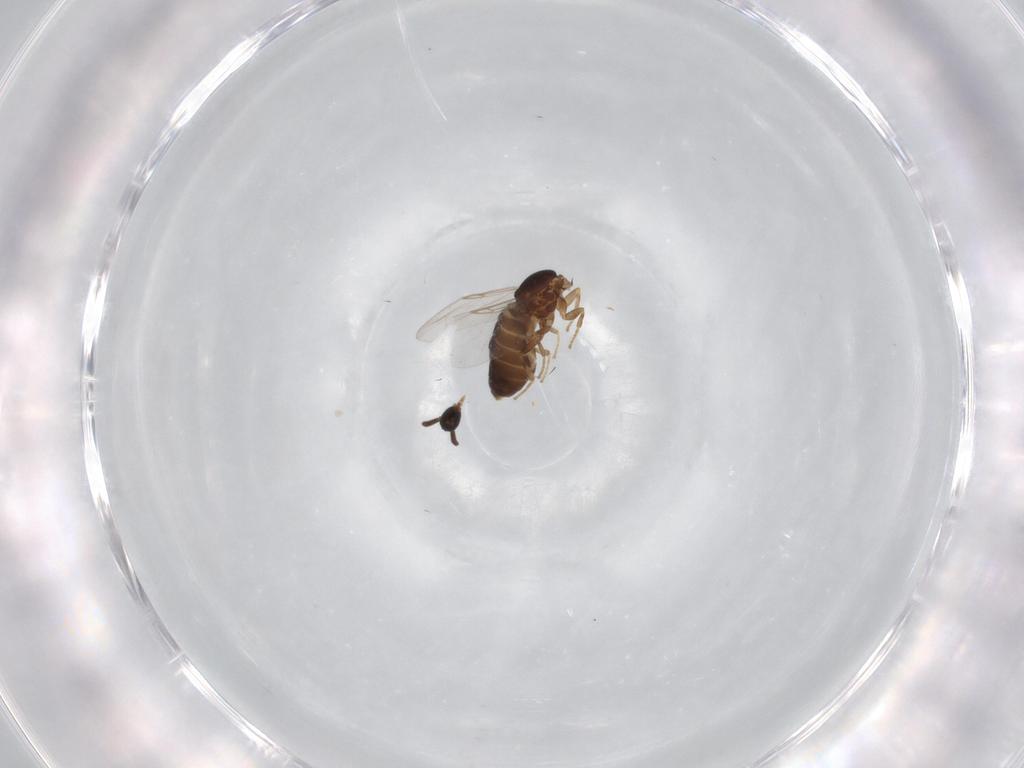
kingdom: Animalia
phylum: Arthropoda
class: Insecta
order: Diptera
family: Scatopsidae
